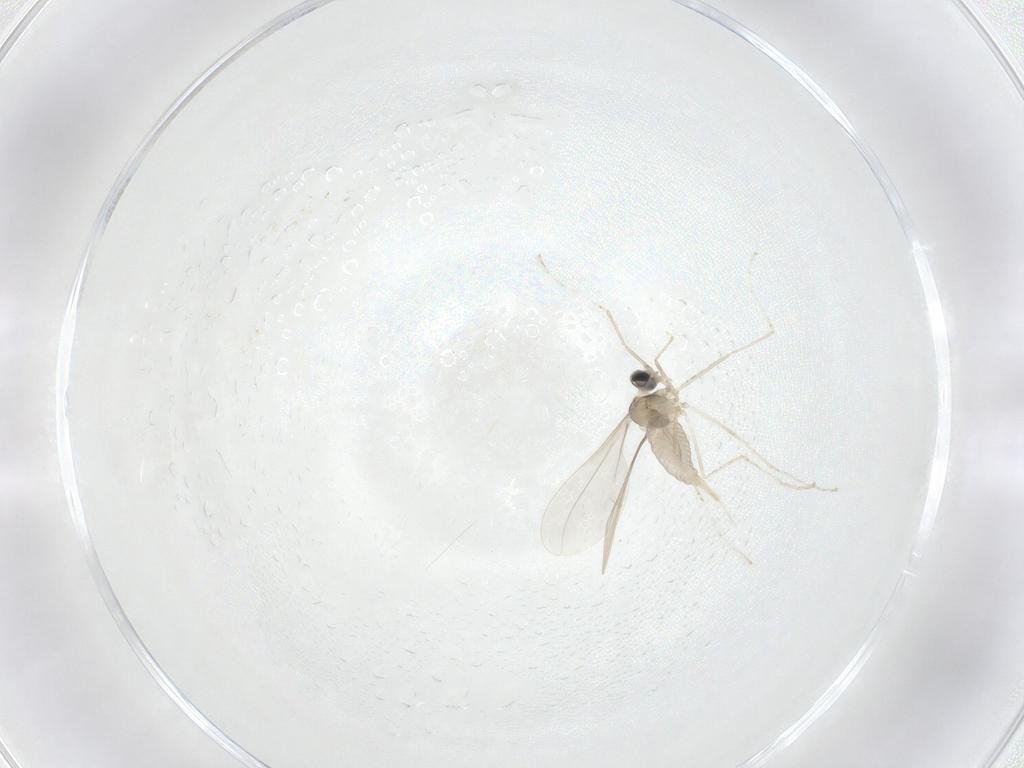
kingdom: Animalia
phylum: Arthropoda
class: Insecta
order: Diptera
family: Cecidomyiidae
